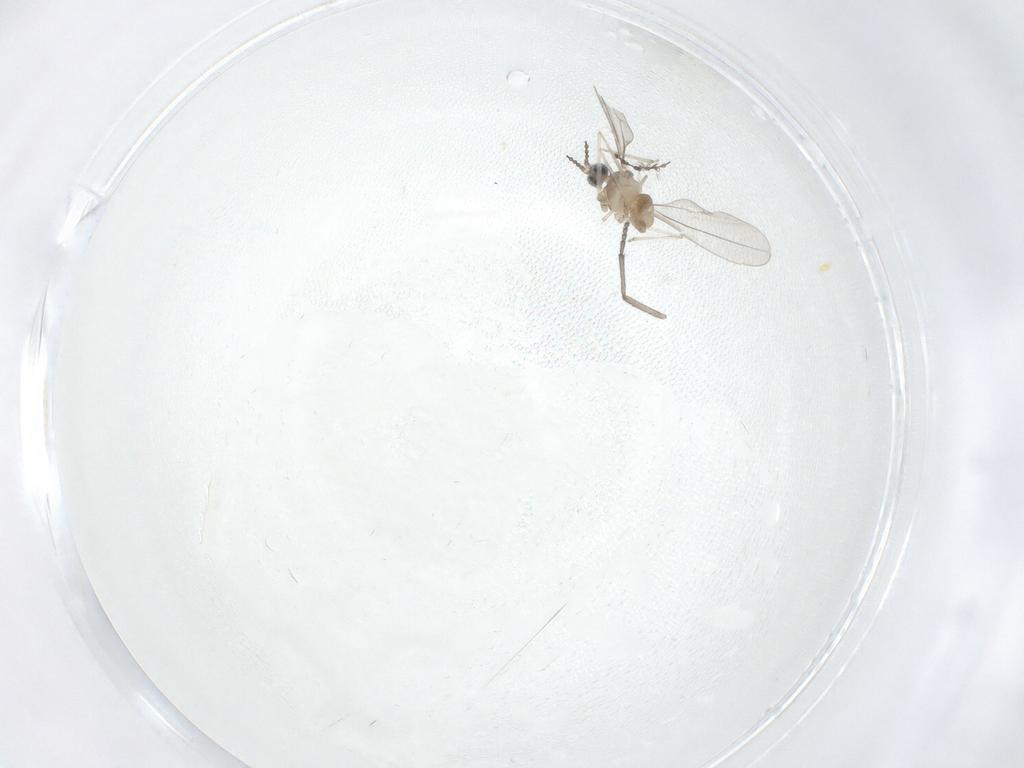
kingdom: Animalia
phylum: Arthropoda
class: Insecta
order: Diptera
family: Cecidomyiidae
